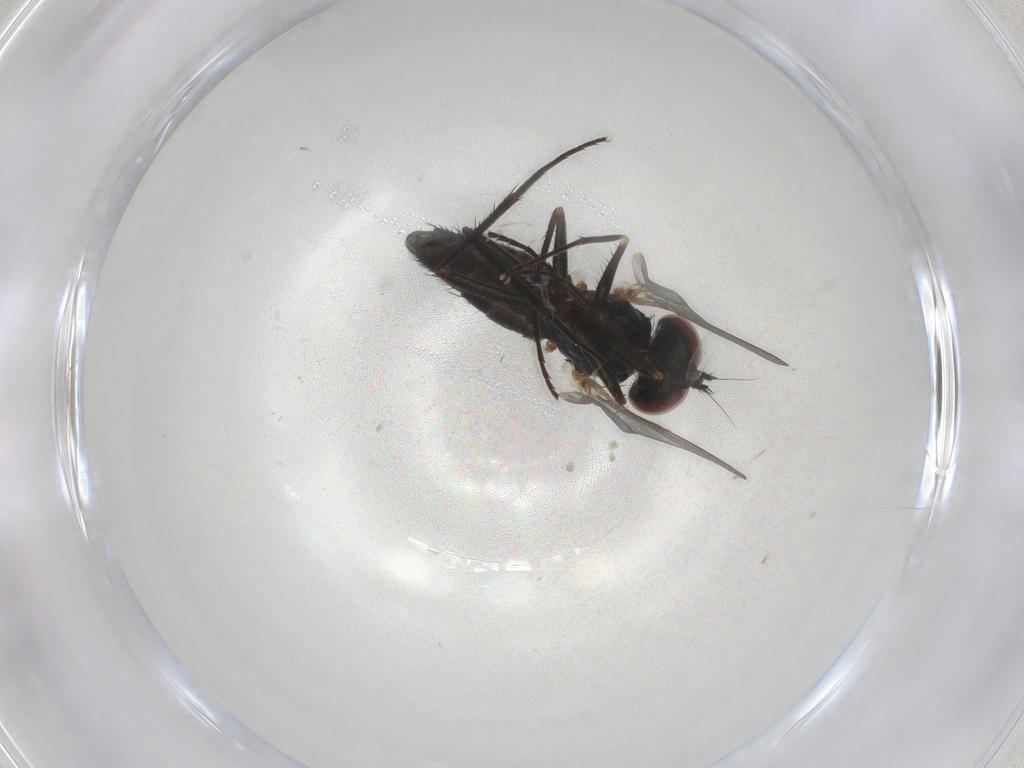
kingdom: Animalia
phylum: Arthropoda
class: Insecta
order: Diptera
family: Dolichopodidae
